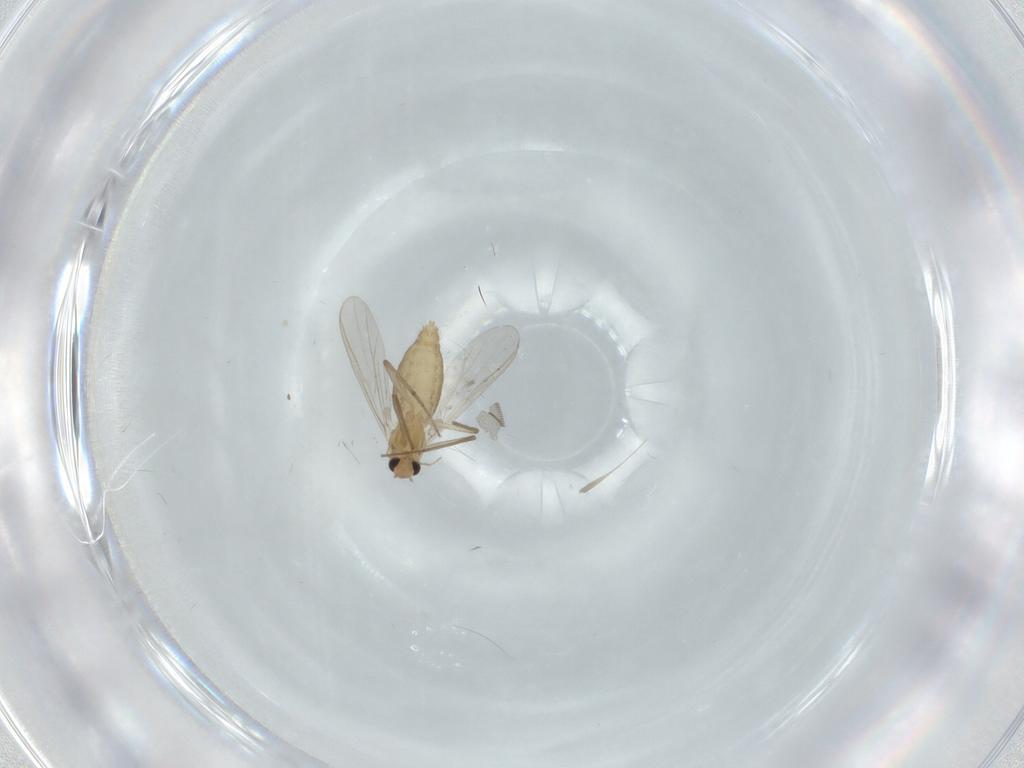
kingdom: Animalia
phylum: Arthropoda
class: Insecta
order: Diptera
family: Chironomidae
